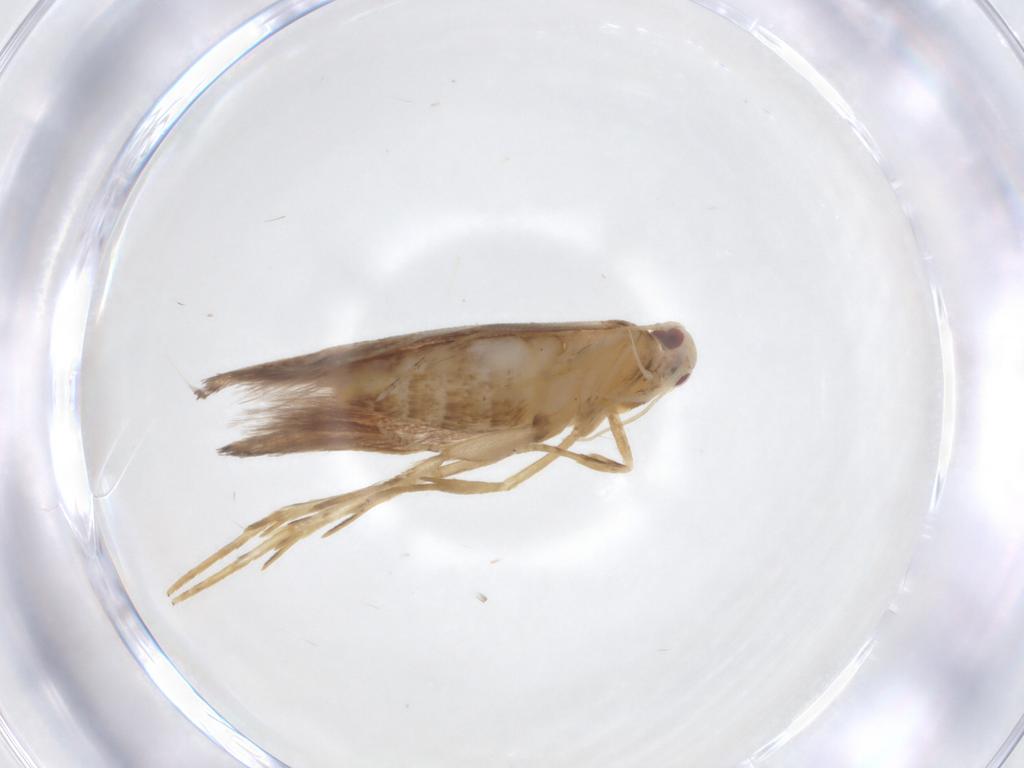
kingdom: Animalia
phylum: Arthropoda
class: Insecta
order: Lepidoptera
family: Cosmopterigidae
